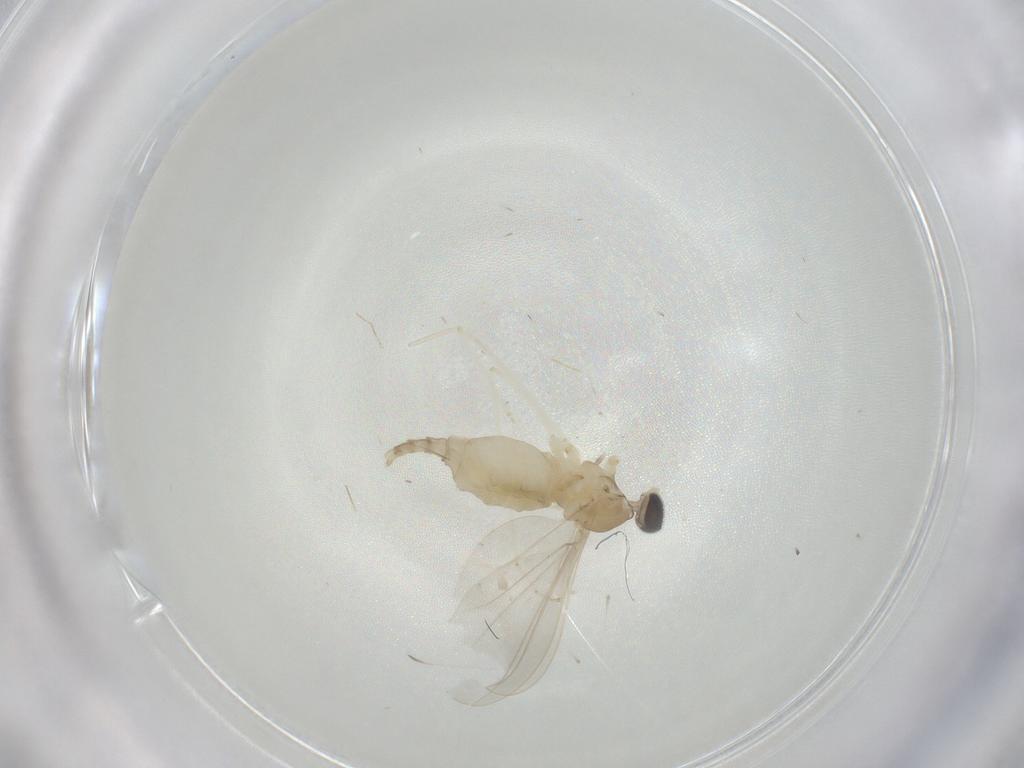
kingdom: Animalia
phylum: Arthropoda
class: Insecta
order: Diptera
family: Cecidomyiidae
